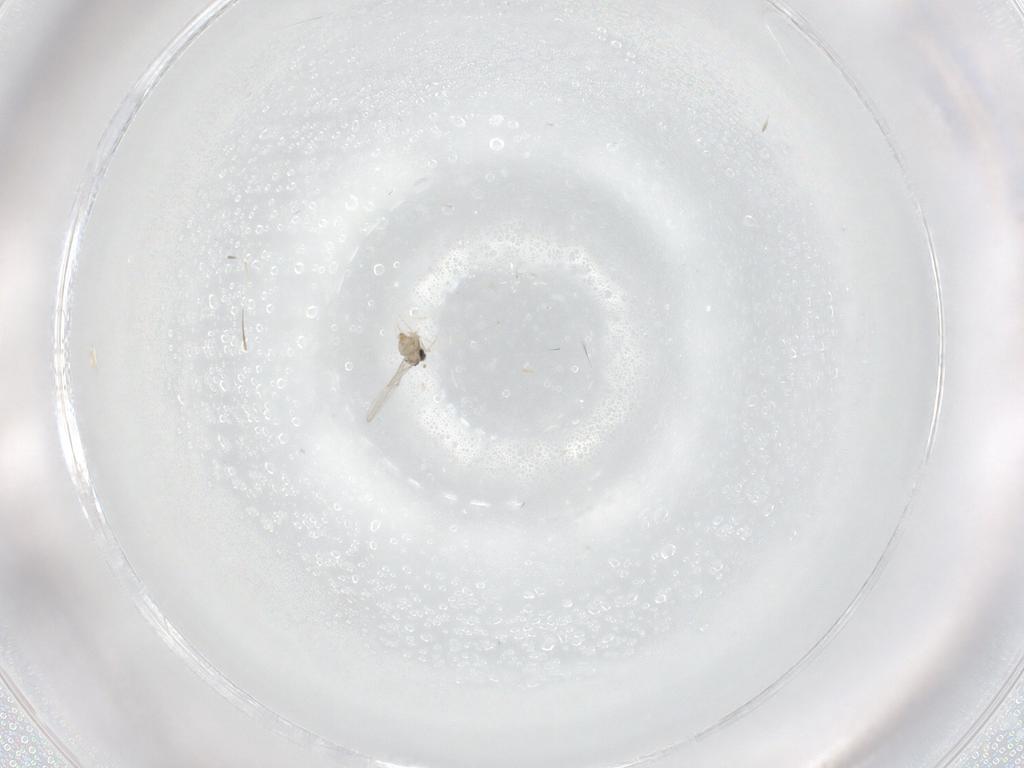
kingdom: Animalia
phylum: Arthropoda
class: Insecta
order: Diptera
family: Cecidomyiidae
